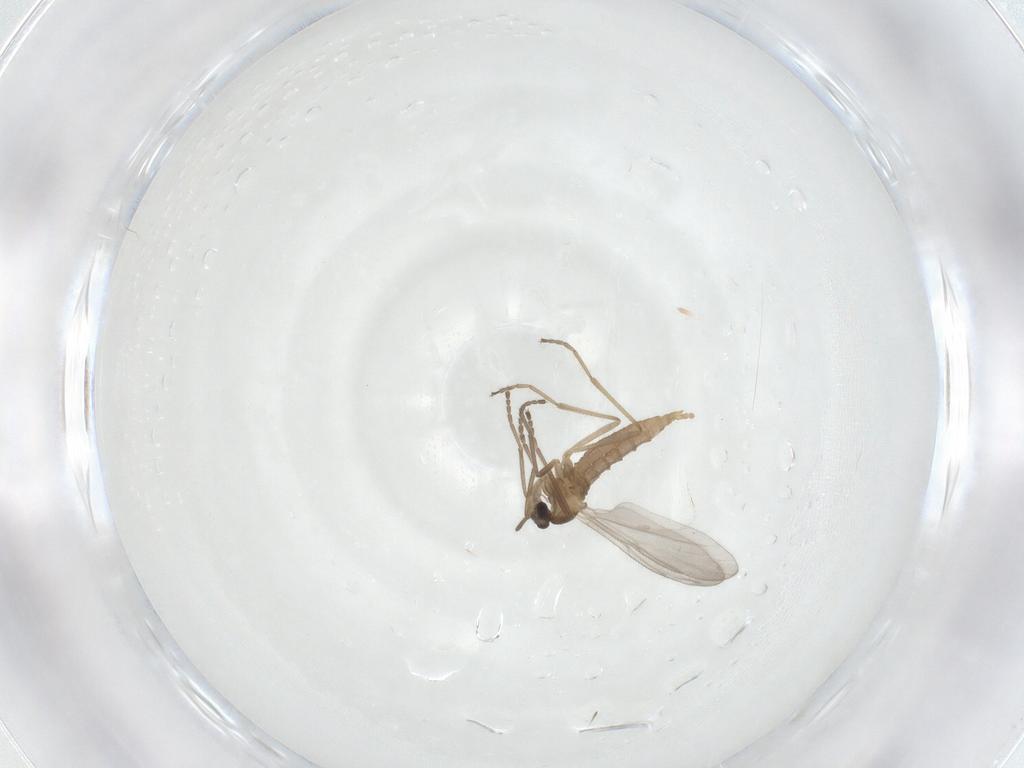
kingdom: Animalia
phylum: Arthropoda
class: Insecta
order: Diptera
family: Cecidomyiidae
